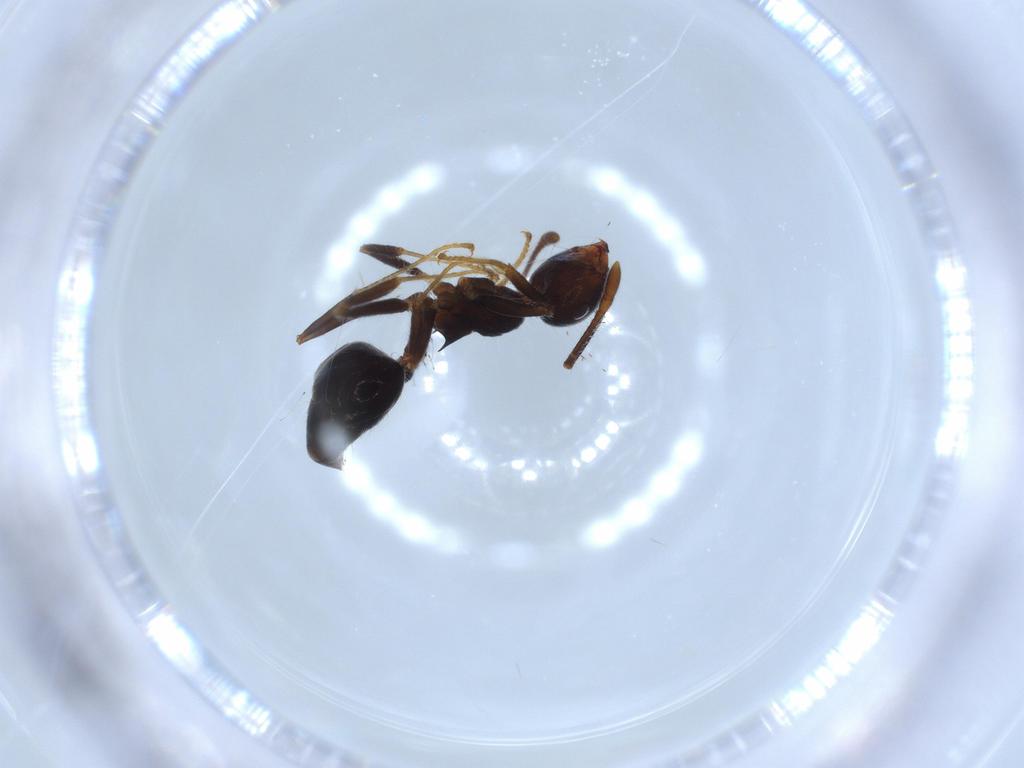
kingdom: Animalia
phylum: Arthropoda
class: Insecta
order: Hymenoptera
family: Formicidae
